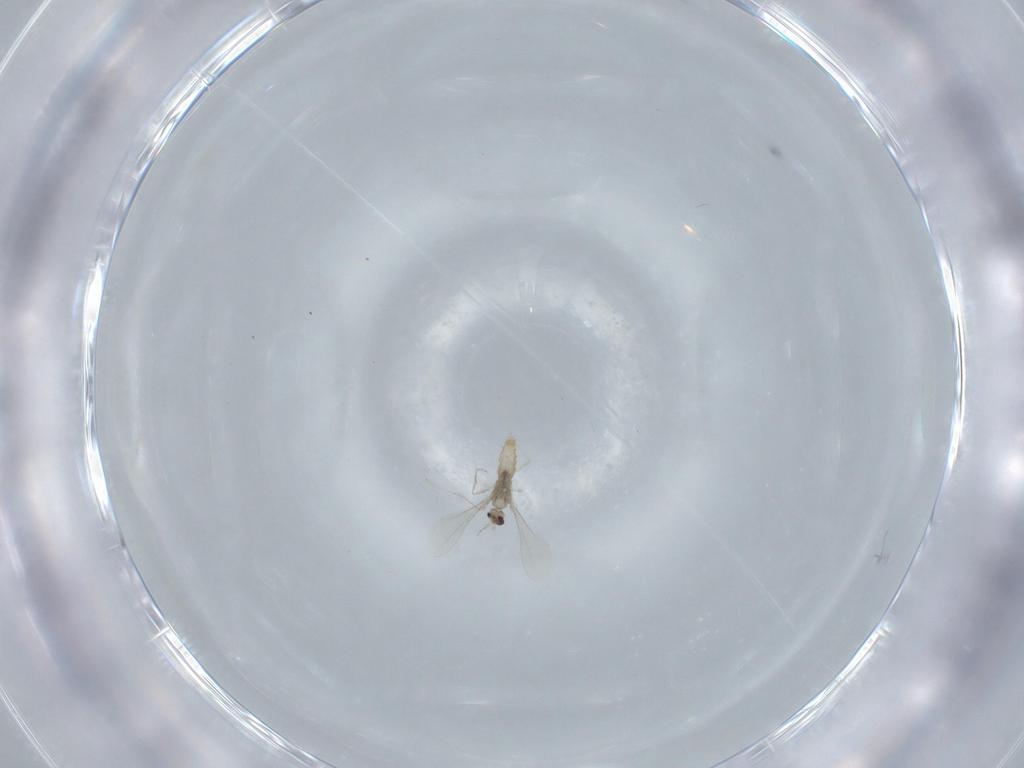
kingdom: Animalia
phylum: Arthropoda
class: Insecta
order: Diptera
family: Cecidomyiidae
